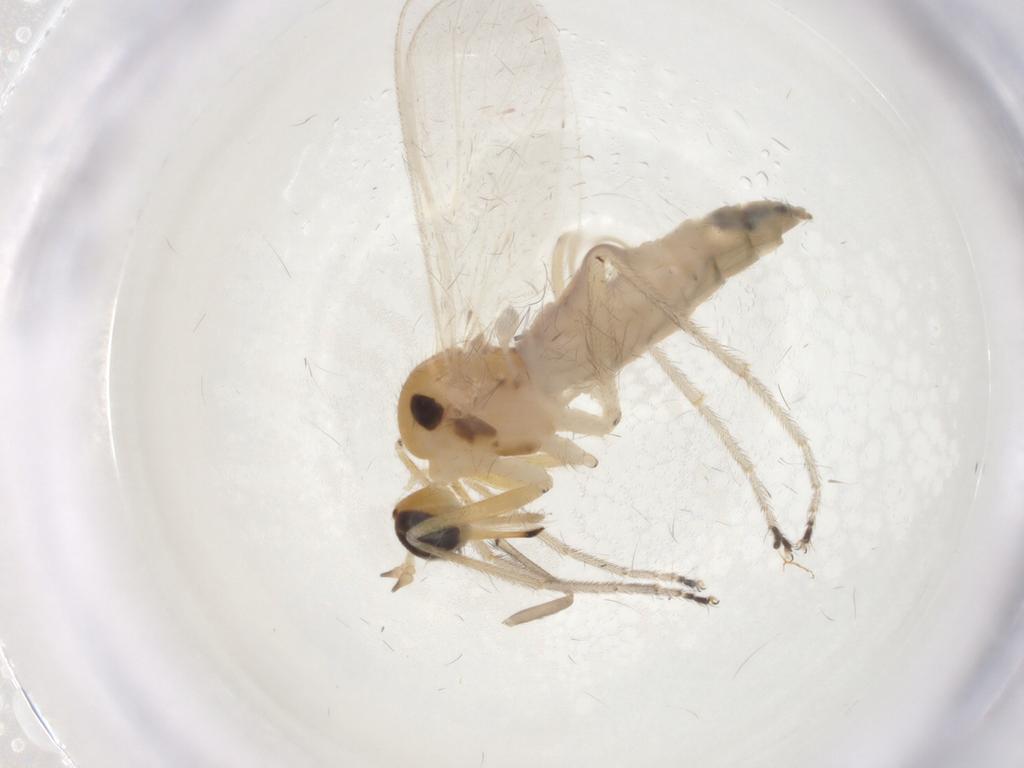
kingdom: Animalia
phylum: Arthropoda
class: Insecta
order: Diptera
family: Empididae
